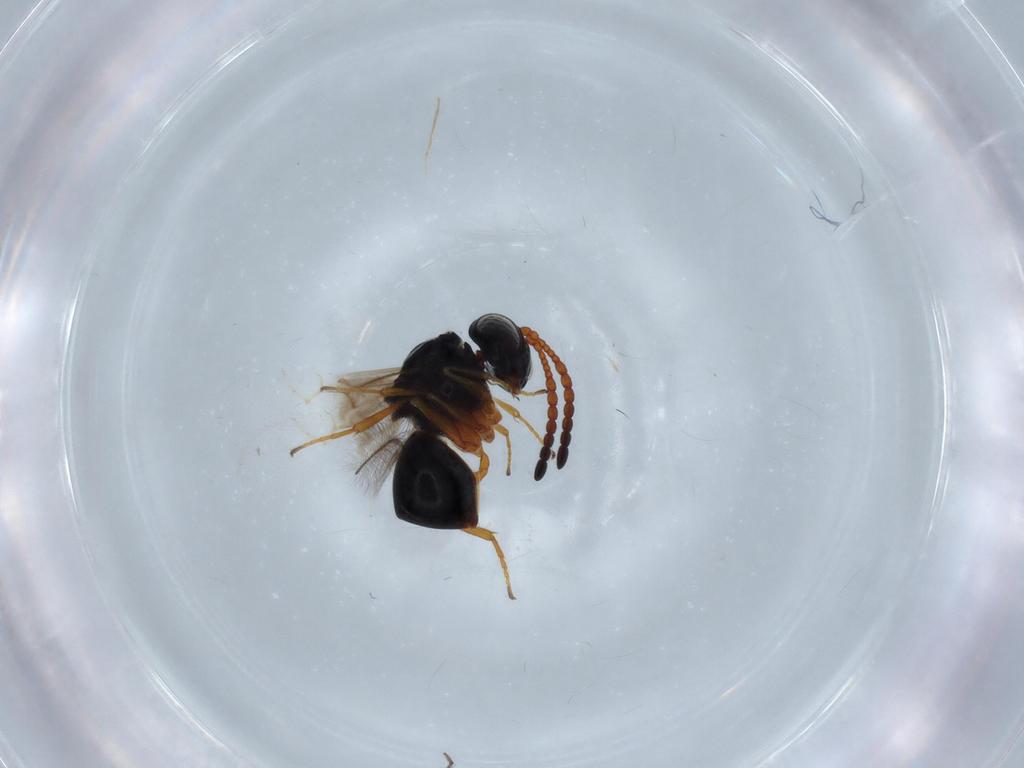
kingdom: Animalia
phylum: Arthropoda
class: Insecta
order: Hymenoptera
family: Figitidae
